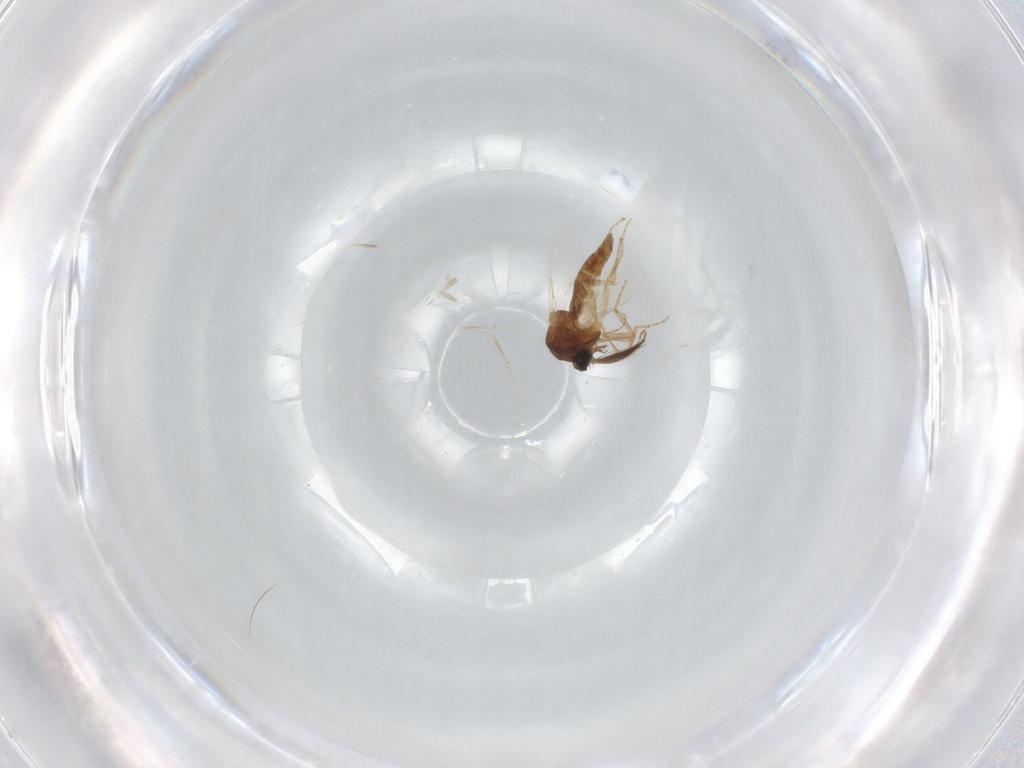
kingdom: Animalia
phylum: Arthropoda
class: Insecta
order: Diptera
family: Ceratopogonidae
